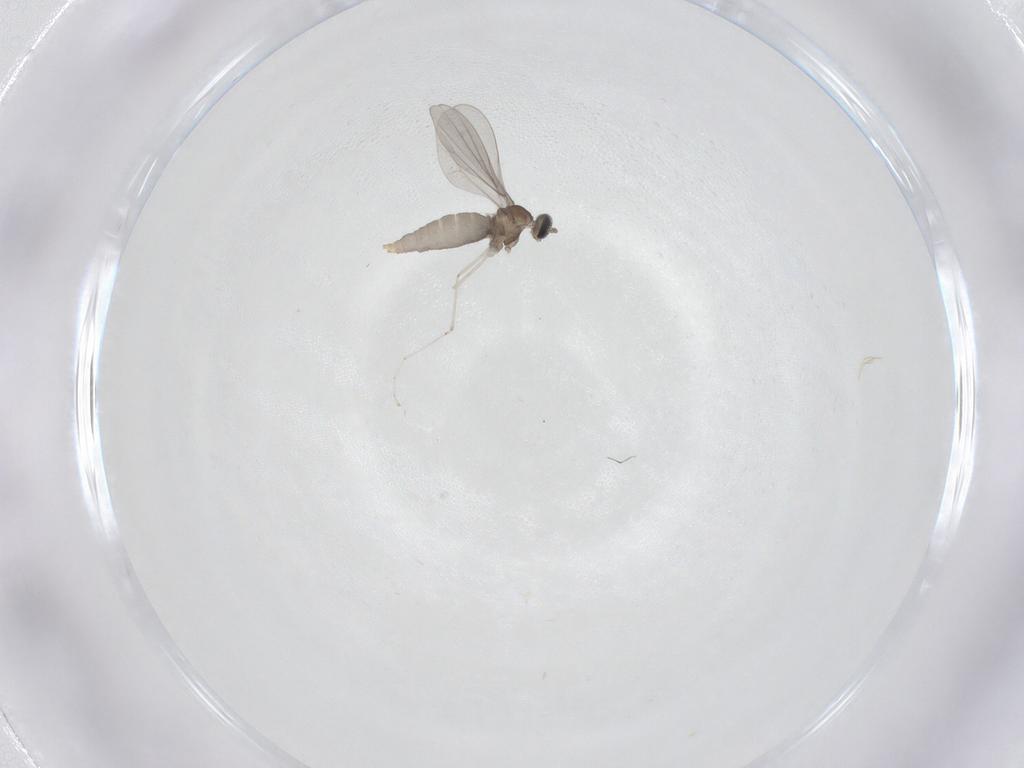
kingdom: Animalia
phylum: Arthropoda
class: Insecta
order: Diptera
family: Cecidomyiidae
